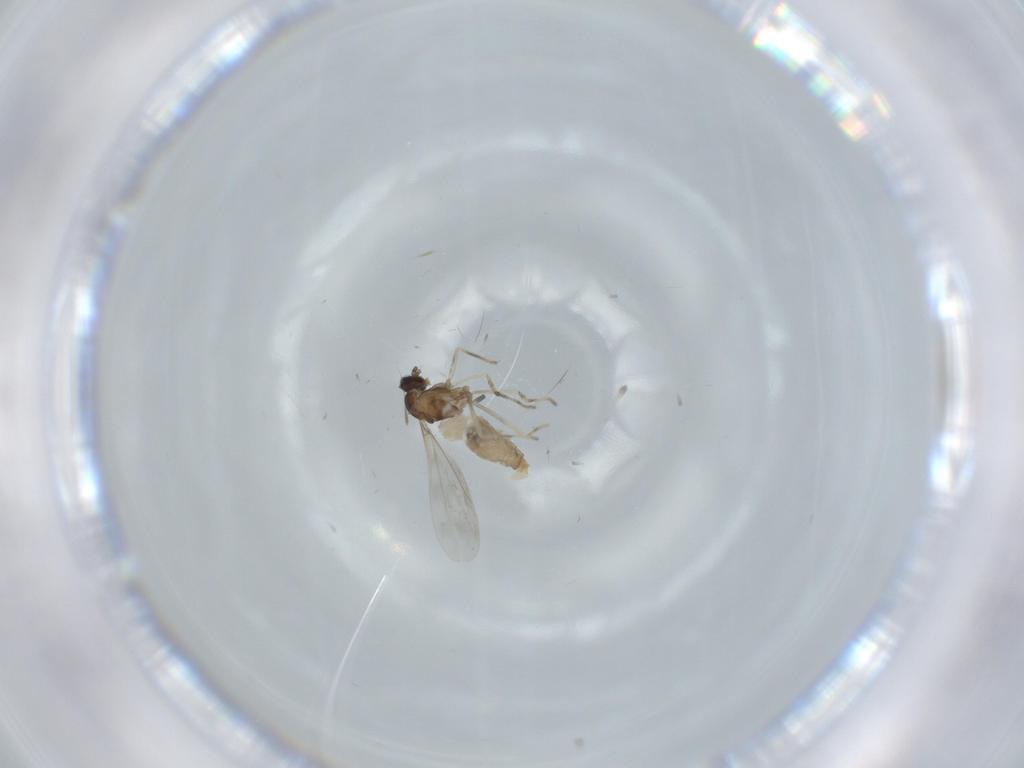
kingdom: Animalia
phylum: Arthropoda
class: Insecta
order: Diptera
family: Cecidomyiidae
